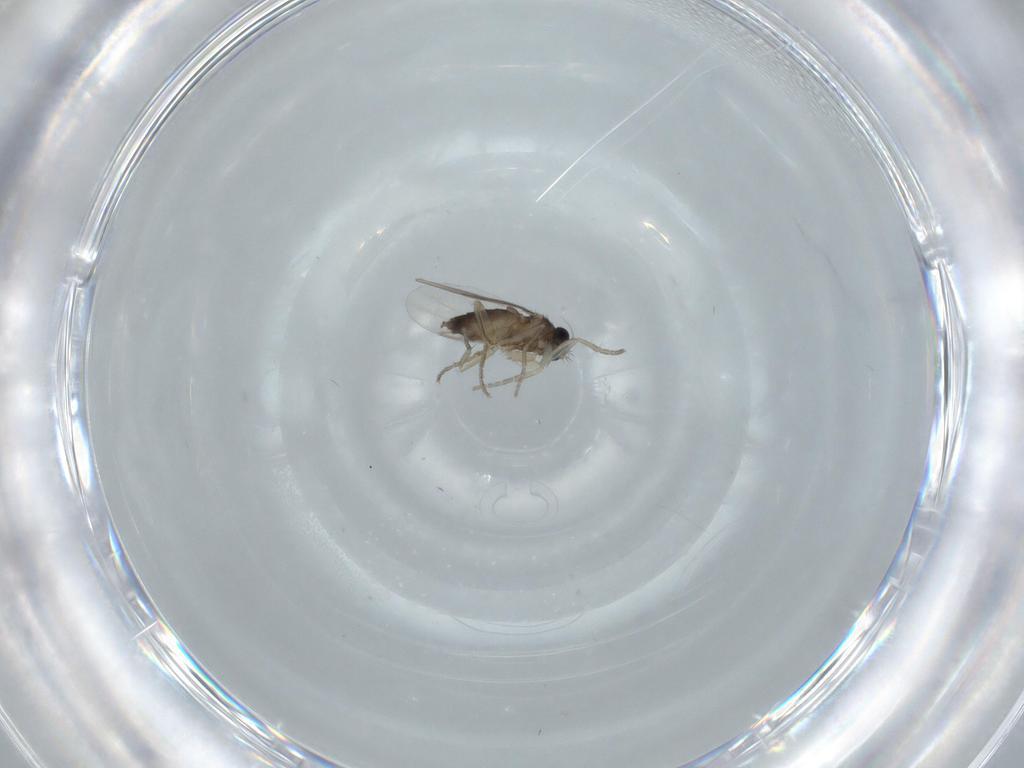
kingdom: Animalia
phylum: Arthropoda
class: Insecta
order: Diptera
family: Phoridae
